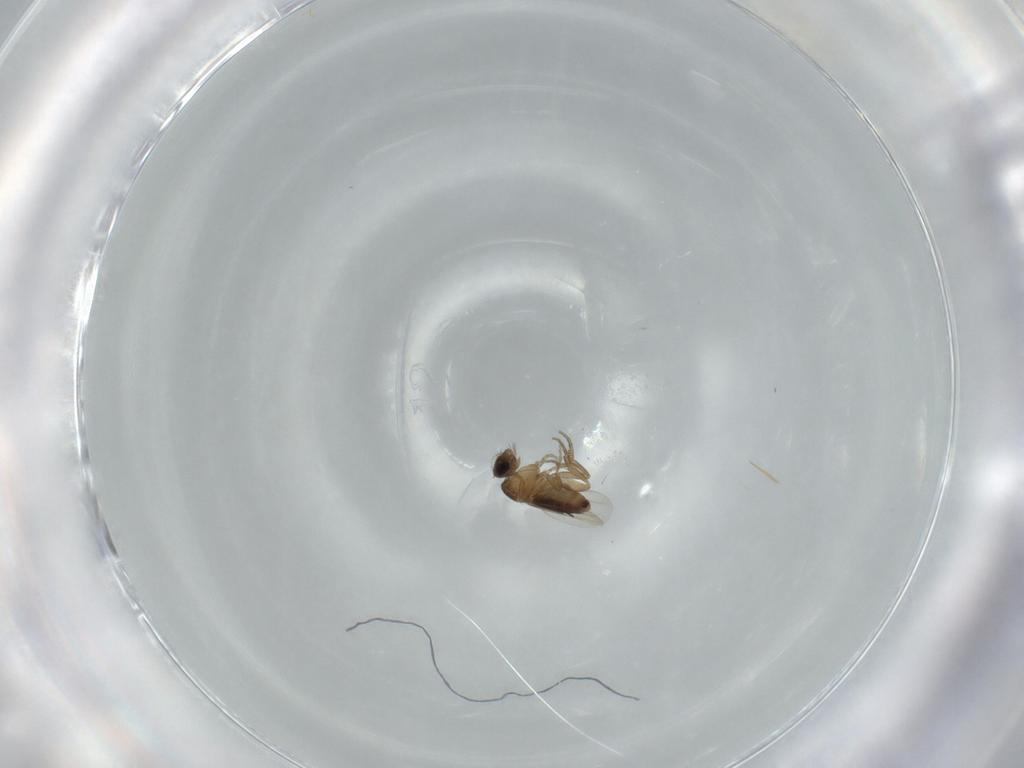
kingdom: Animalia
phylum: Arthropoda
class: Insecta
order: Diptera
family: Phoridae
